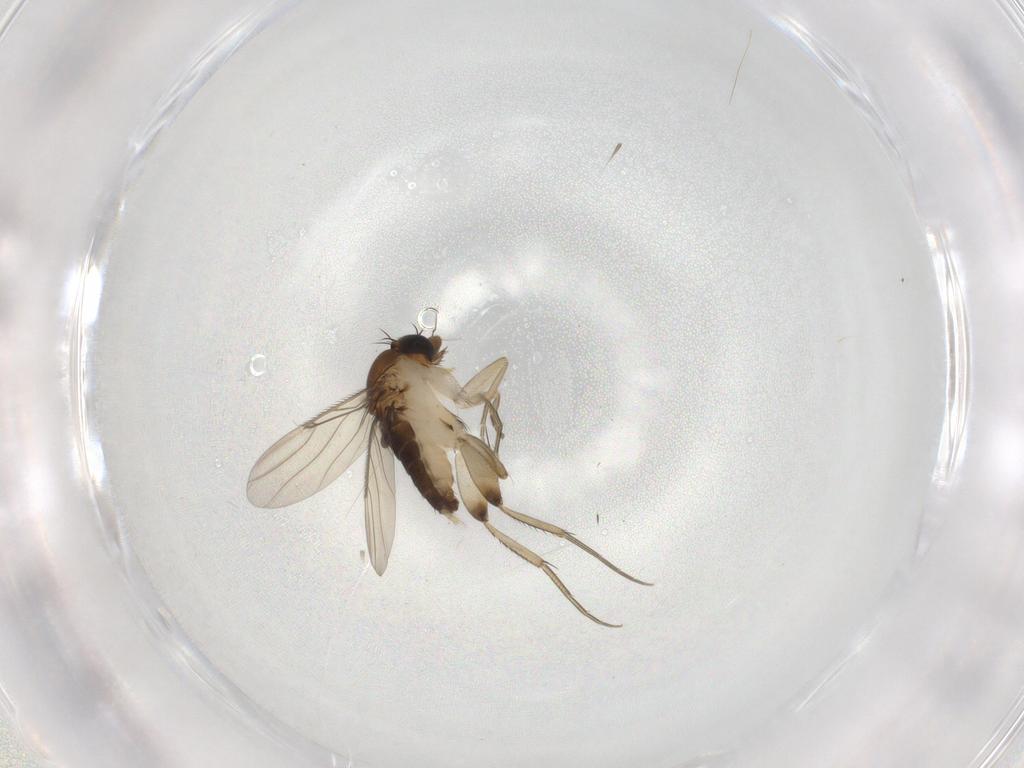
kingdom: Animalia
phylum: Arthropoda
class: Insecta
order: Diptera
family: Phoridae
